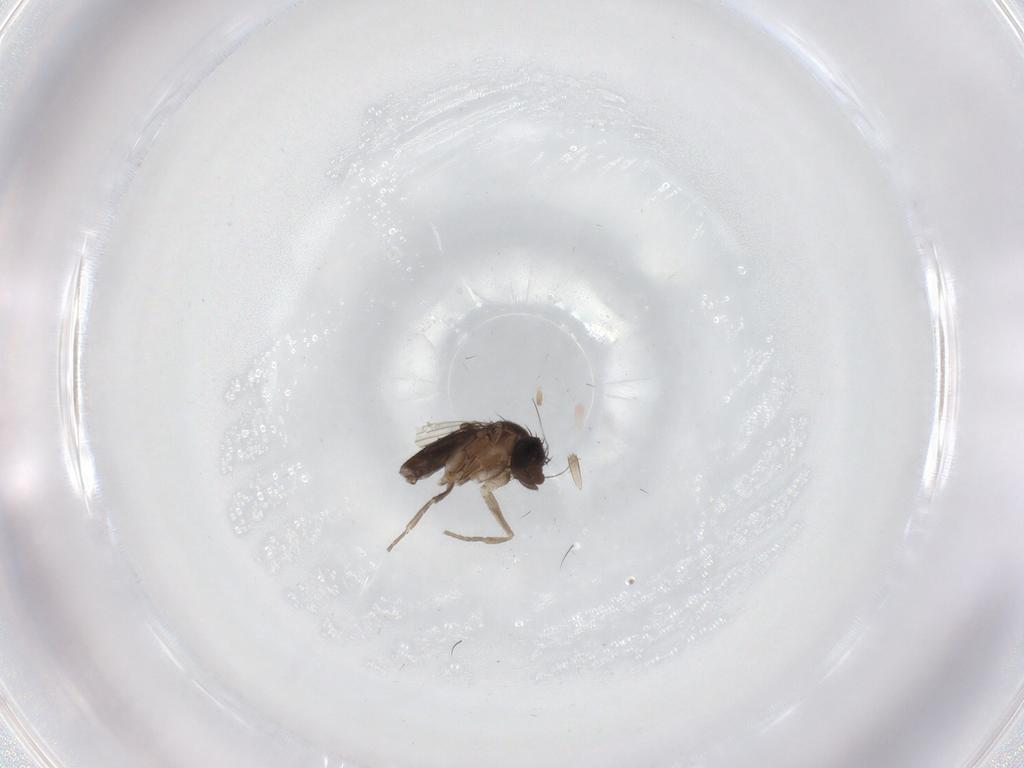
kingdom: Animalia
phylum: Arthropoda
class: Insecta
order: Diptera
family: Phoridae
